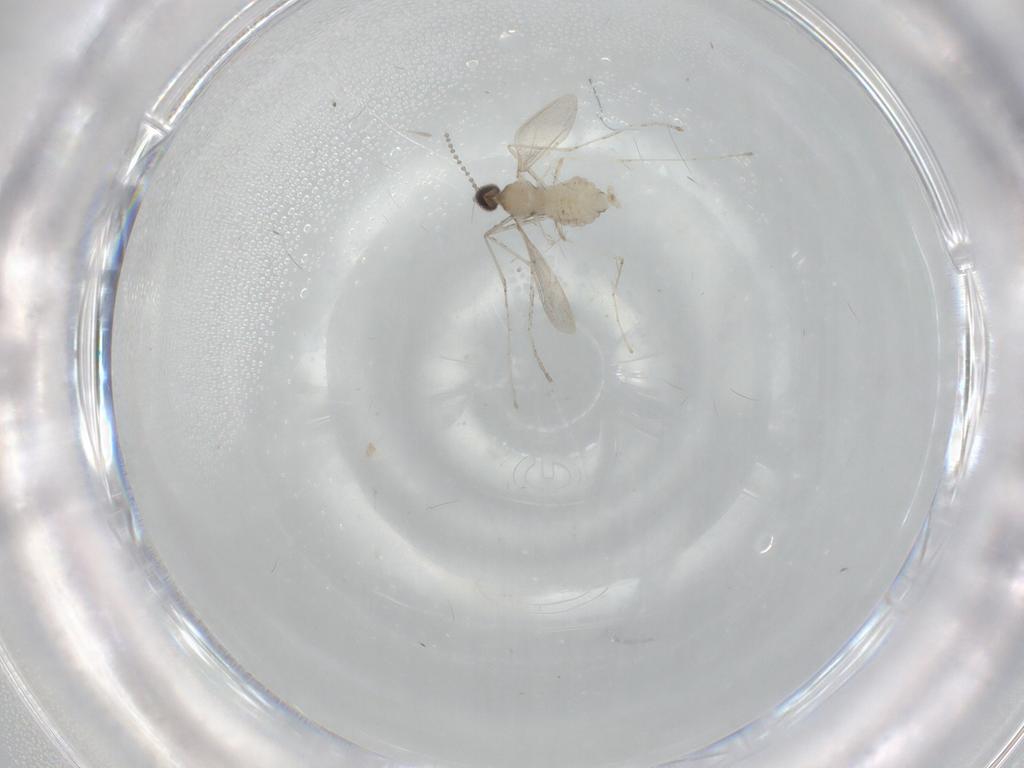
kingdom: Animalia
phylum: Arthropoda
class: Insecta
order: Diptera
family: Cecidomyiidae
